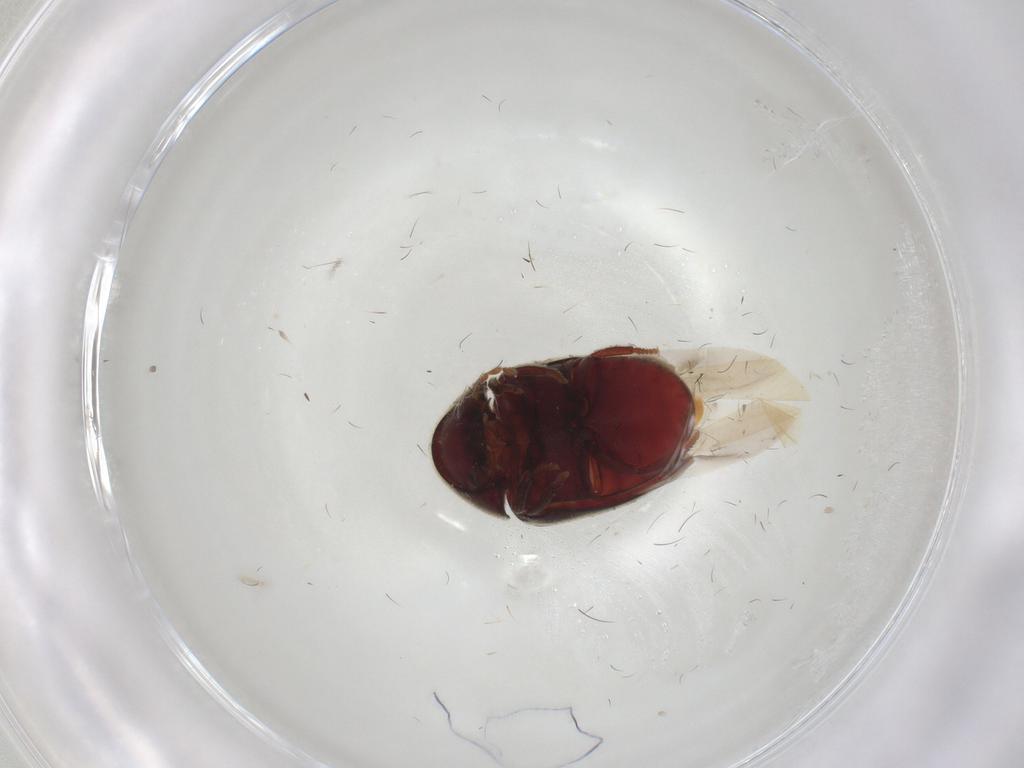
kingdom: Animalia
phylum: Arthropoda
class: Insecta
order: Coleoptera
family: Ptinidae
